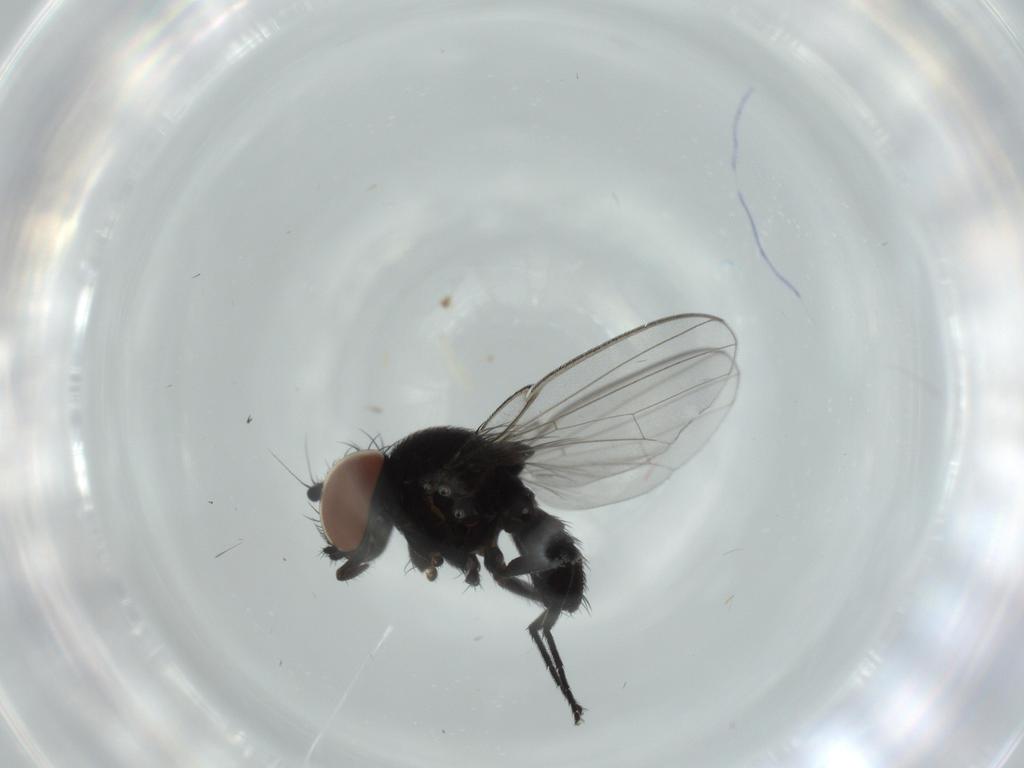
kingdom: Animalia
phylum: Arthropoda
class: Insecta
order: Diptera
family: Milichiidae
